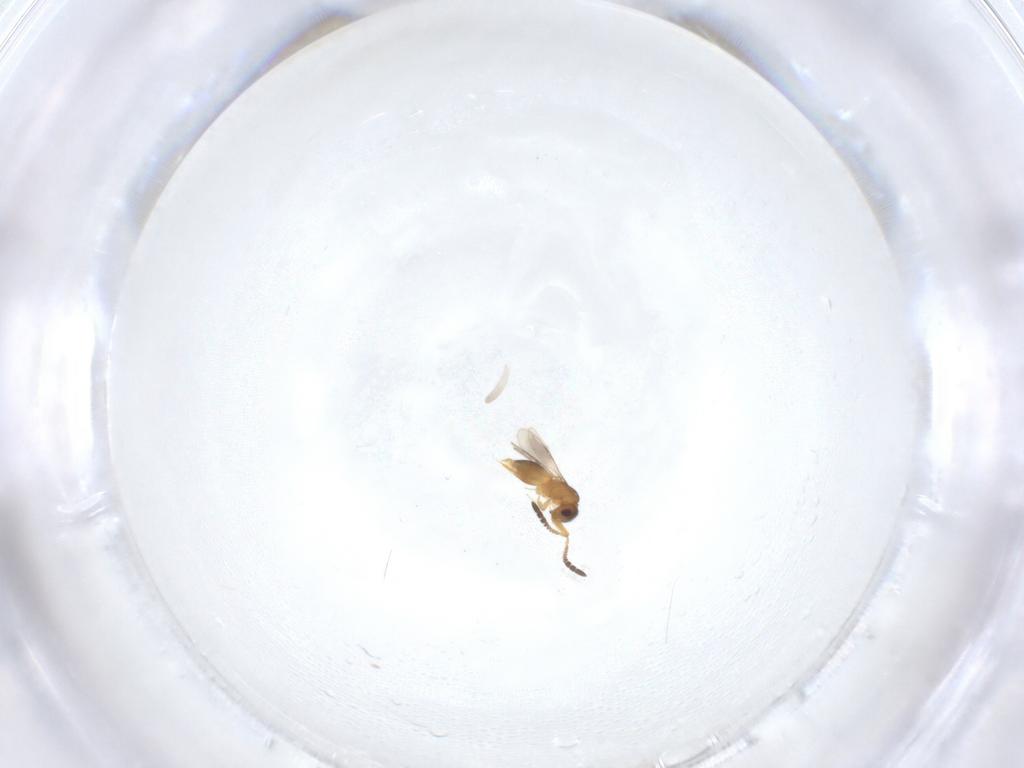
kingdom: Animalia
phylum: Arthropoda
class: Insecta
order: Hymenoptera
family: Ceraphronidae
